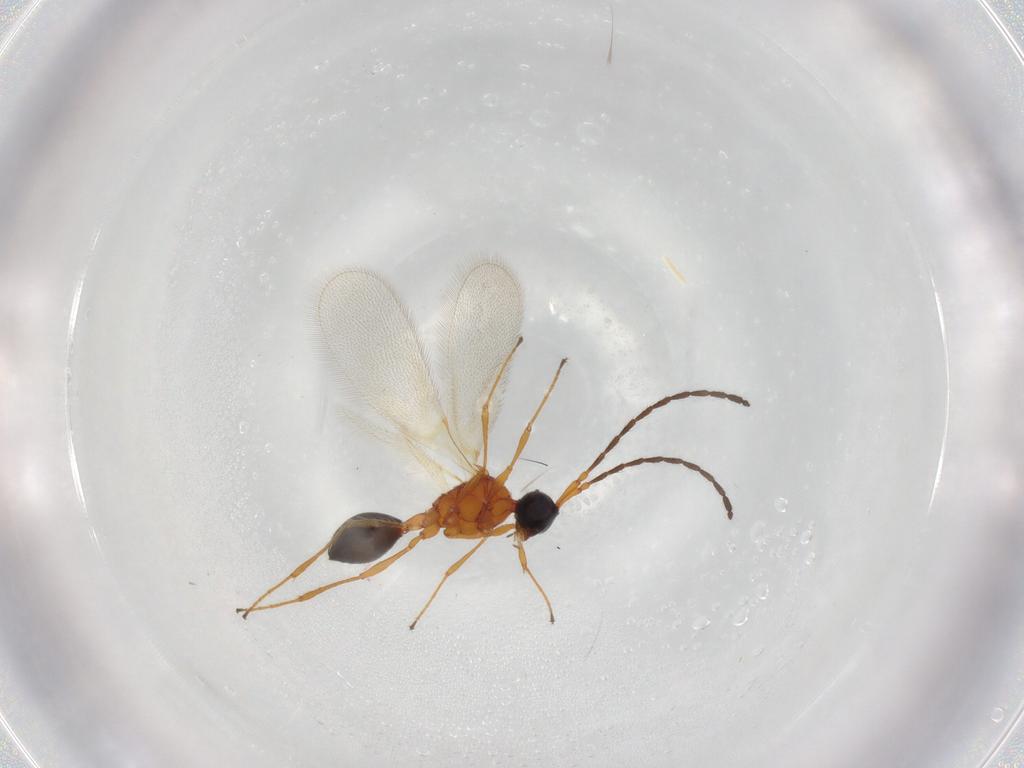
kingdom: Animalia
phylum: Arthropoda
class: Insecta
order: Hymenoptera
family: Diapriidae
